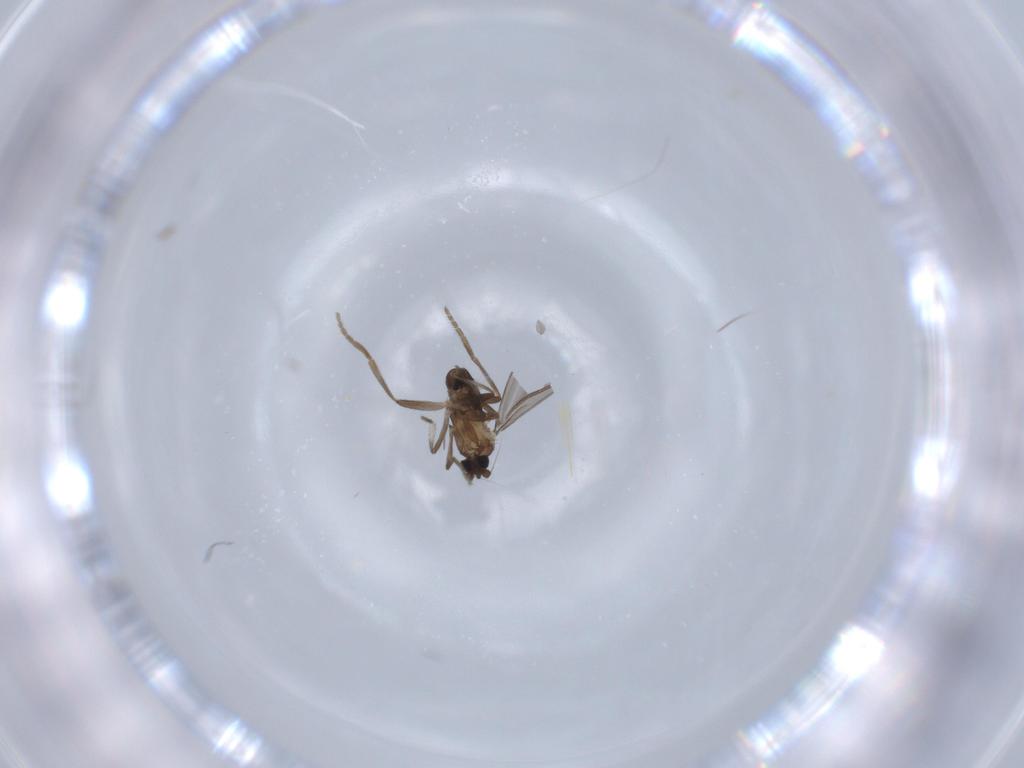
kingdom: Animalia
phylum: Arthropoda
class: Insecta
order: Diptera
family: Phoridae
